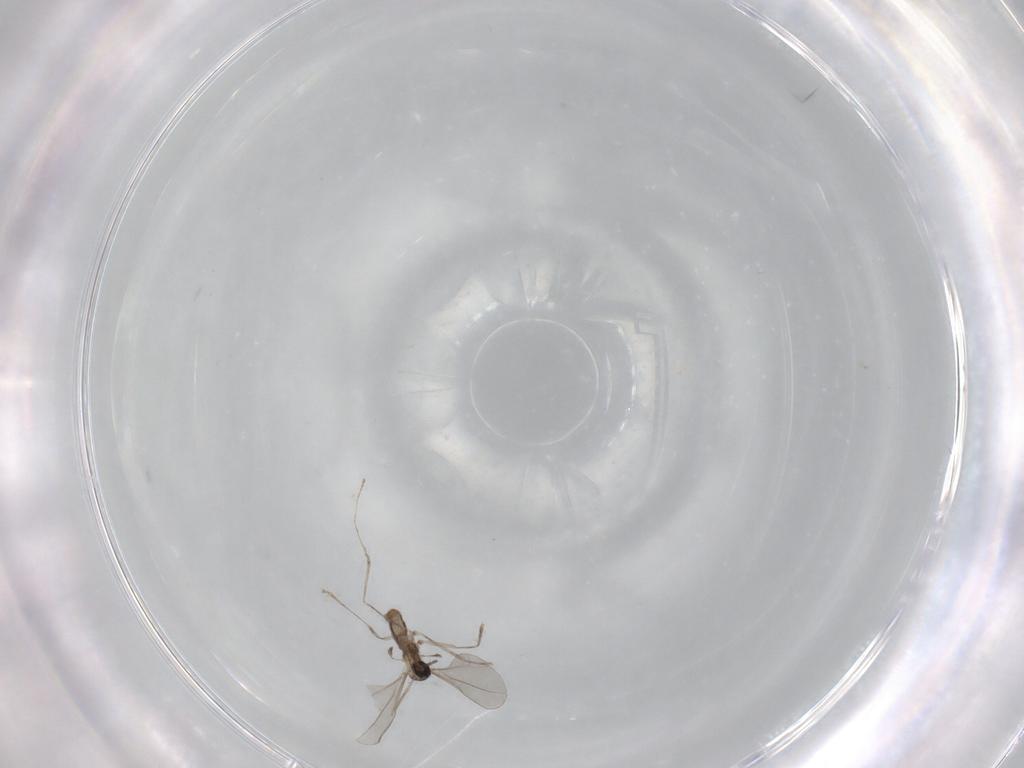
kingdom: Animalia
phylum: Arthropoda
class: Insecta
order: Diptera
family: Cecidomyiidae
